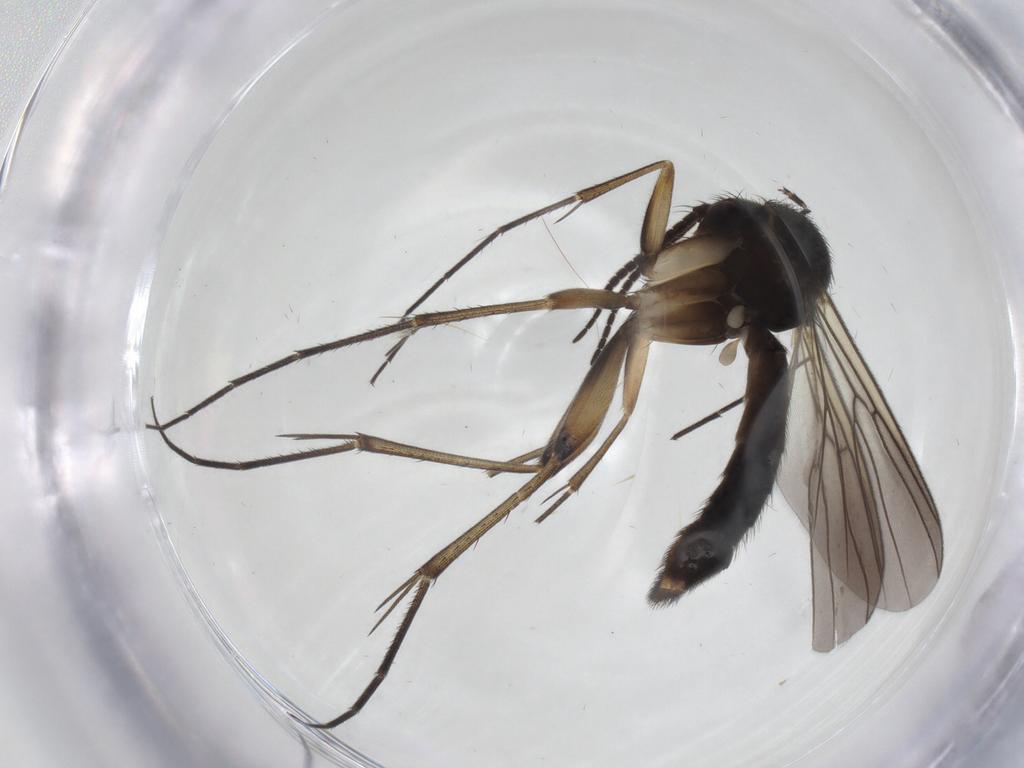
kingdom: Animalia
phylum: Arthropoda
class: Insecta
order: Diptera
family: Mycetophilidae
